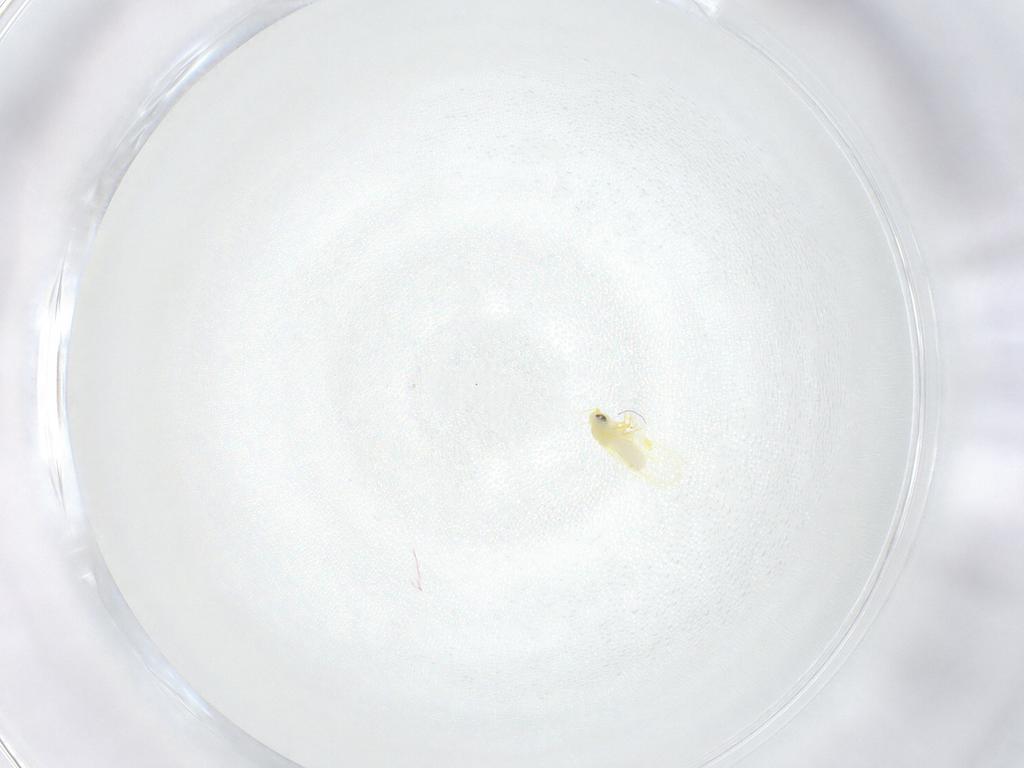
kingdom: Animalia
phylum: Arthropoda
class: Insecta
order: Hemiptera
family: Aleyrodidae
